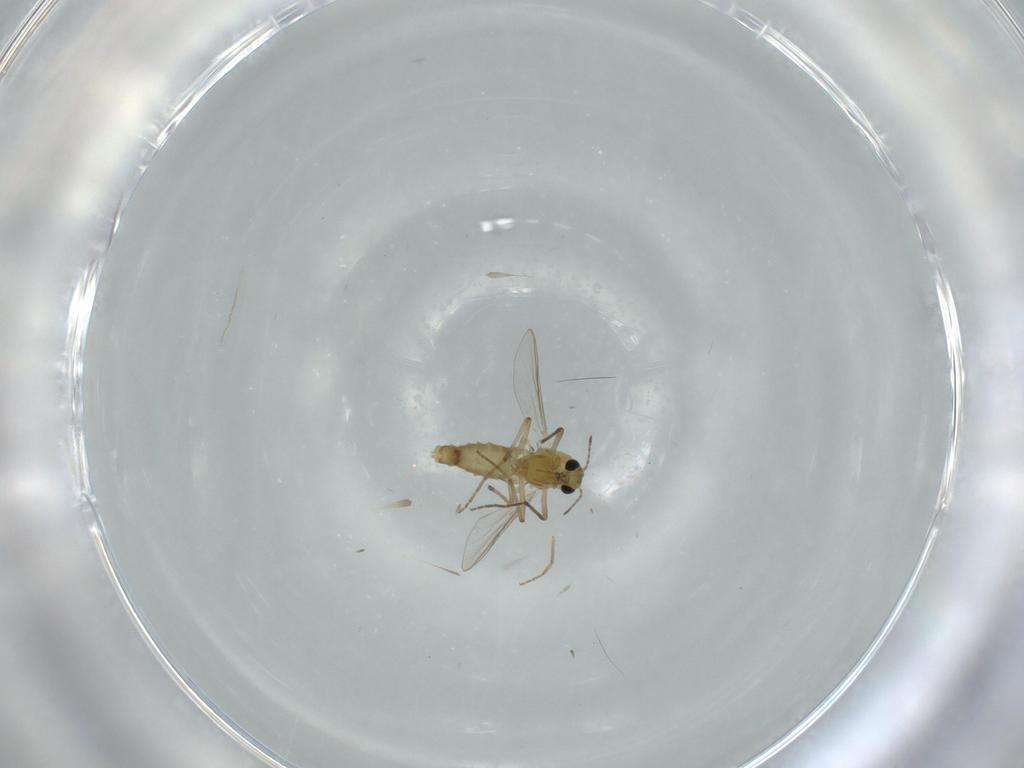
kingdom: Animalia
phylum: Arthropoda
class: Insecta
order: Diptera
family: Chironomidae
